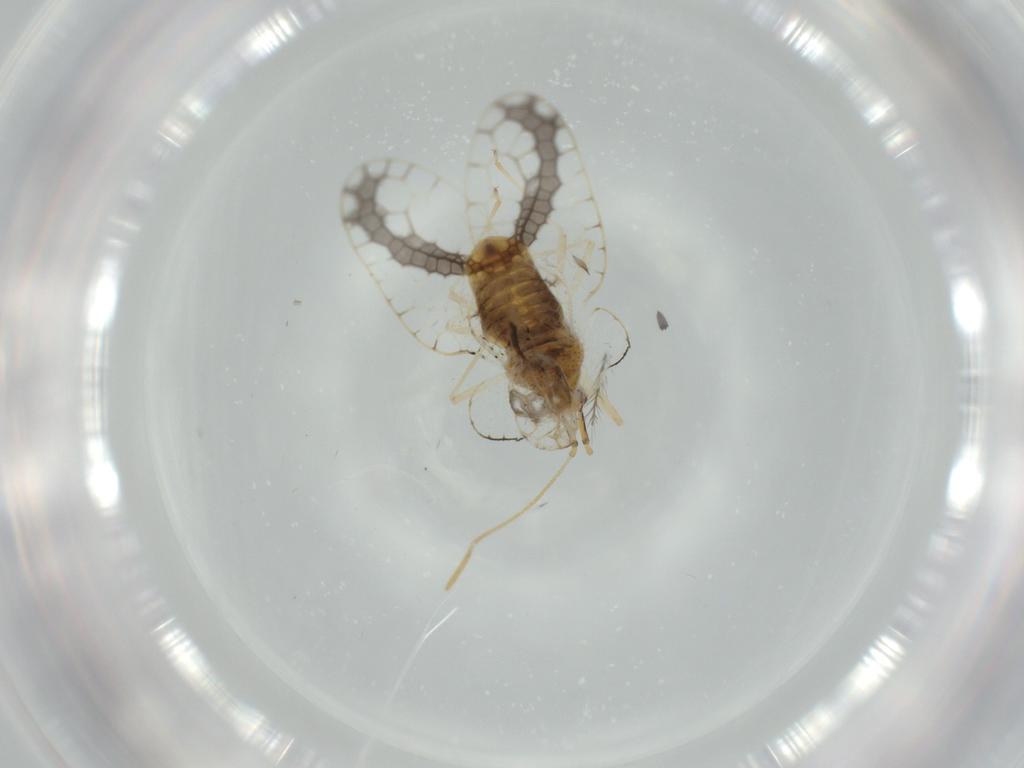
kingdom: Animalia
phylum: Arthropoda
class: Insecta
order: Hemiptera
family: Tingidae
